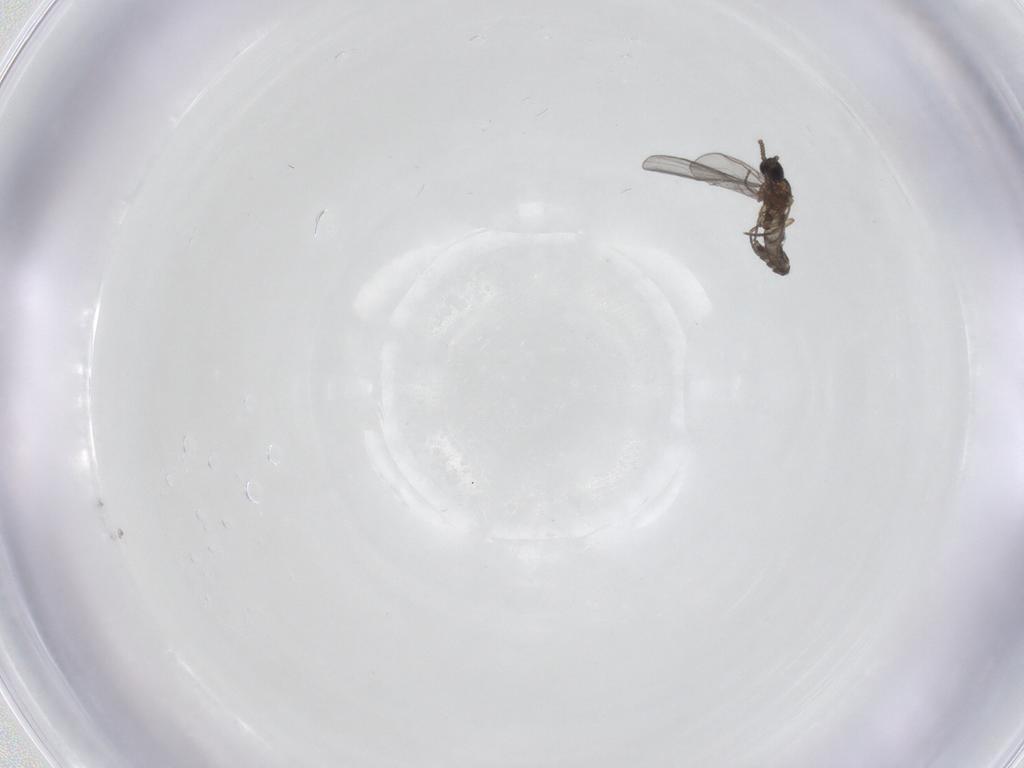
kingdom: Animalia
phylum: Arthropoda
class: Insecta
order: Diptera
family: Sciaridae
